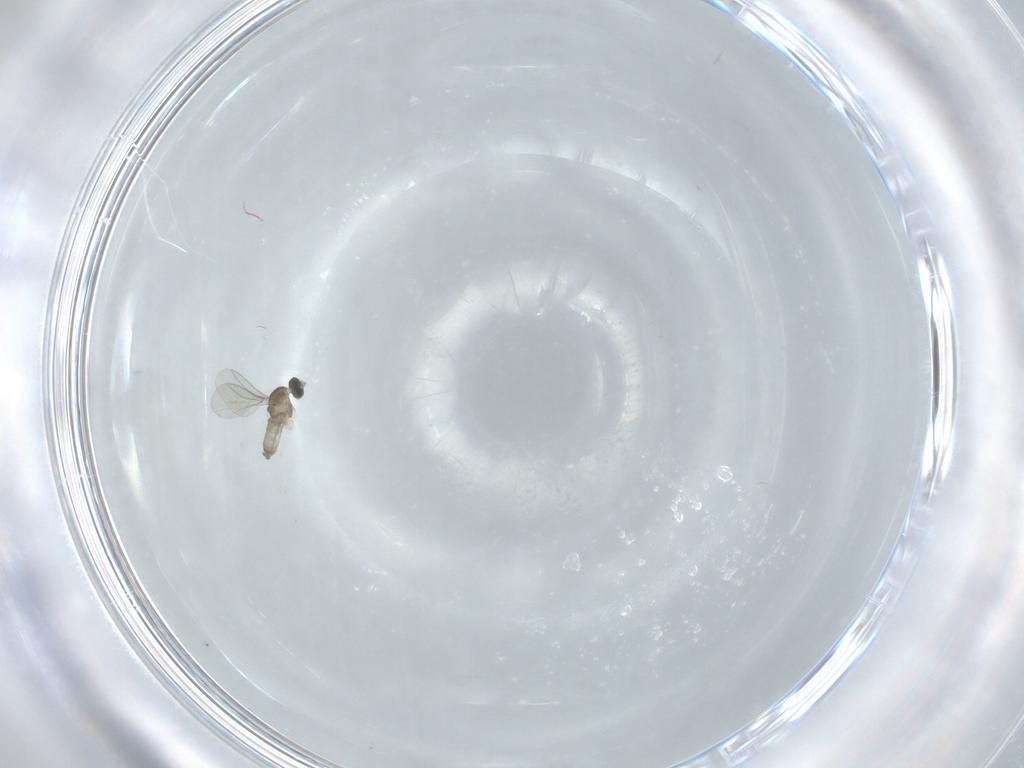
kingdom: Animalia
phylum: Arthropoda
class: Insecta
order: Diptera
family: Cecidomyiidae
